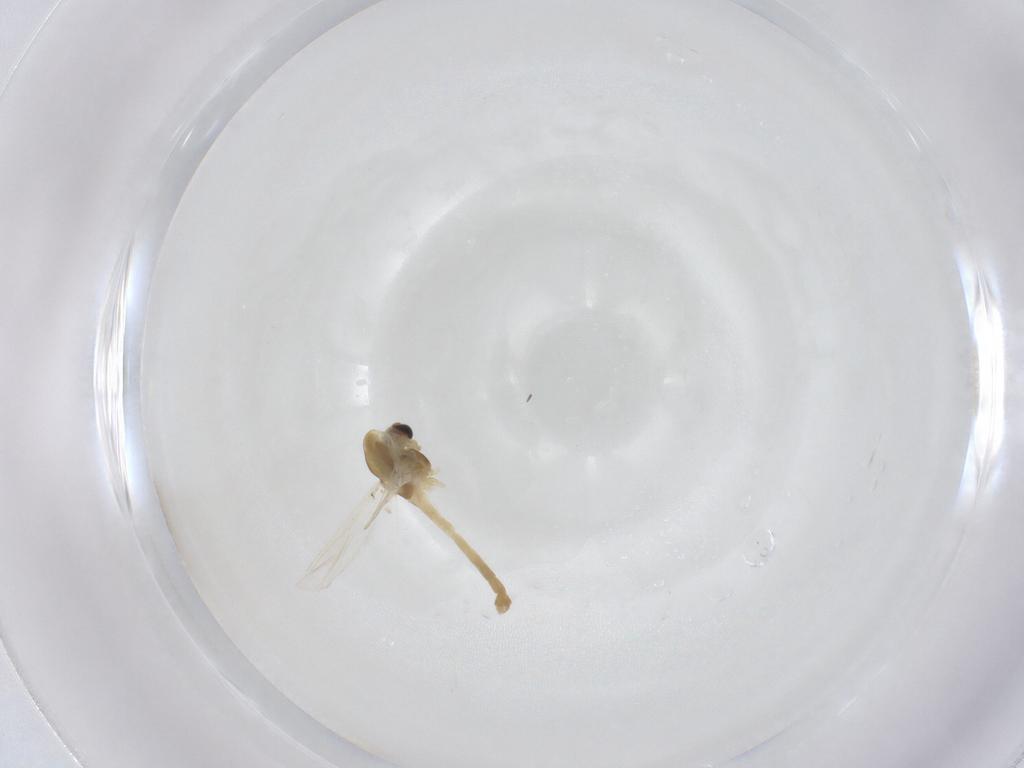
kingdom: Animalia
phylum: Arthropoda
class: Insecta
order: Diptera
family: Chironomidae
